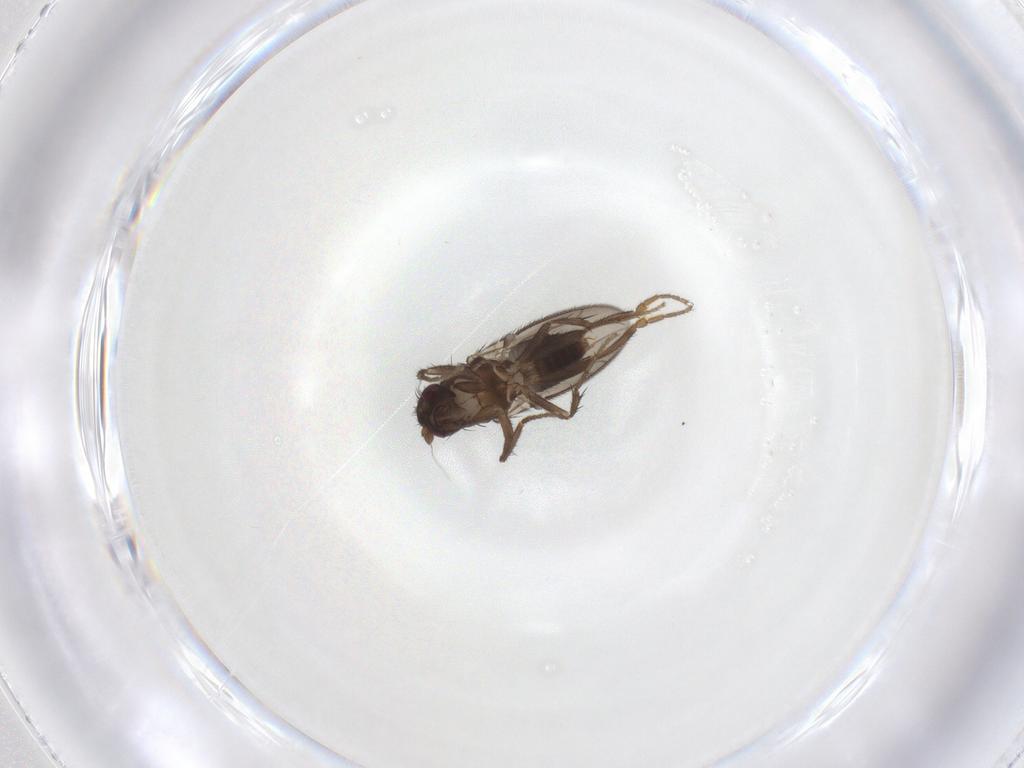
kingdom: Animalia
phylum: Arthropoda
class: Insecta
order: Diptera
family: Sphaeroceridae
